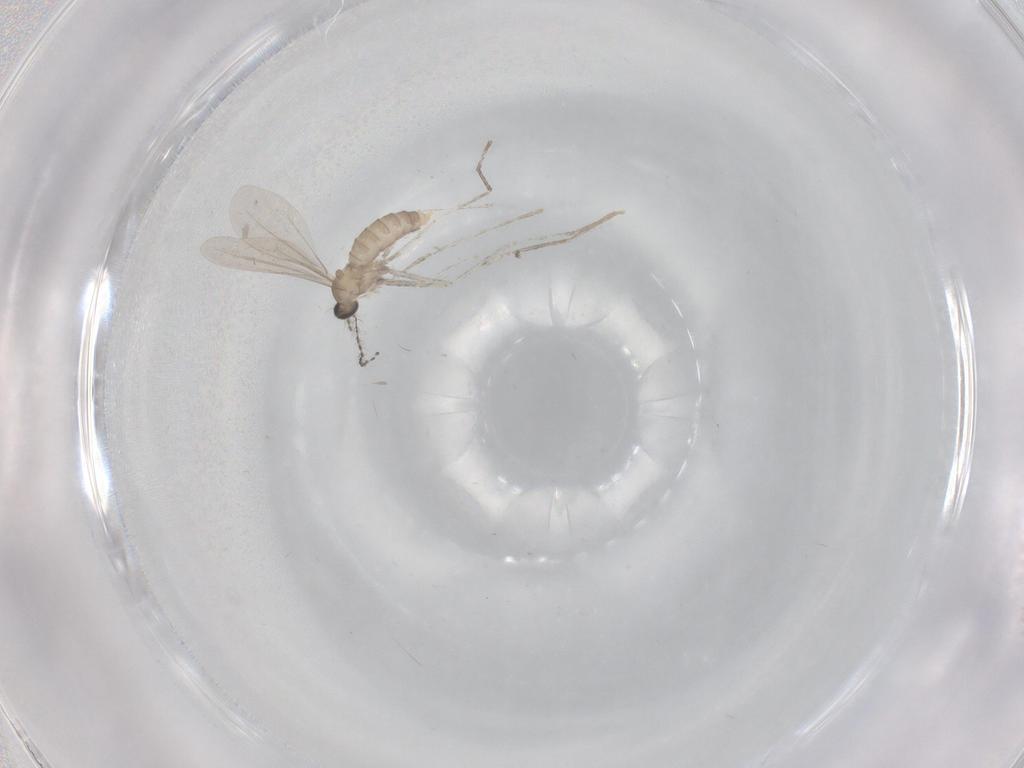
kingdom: Animalia
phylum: Arthropoda
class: Insecta
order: Diptera
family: Cecidomyiidae
